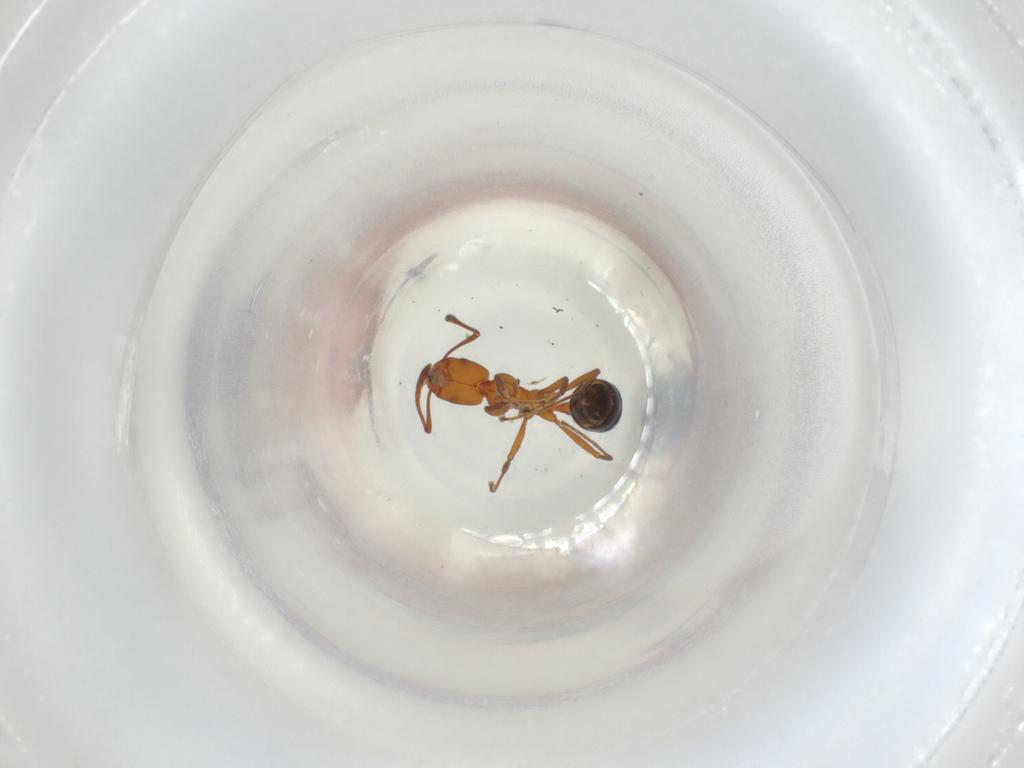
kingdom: Animalia
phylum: Arthropoda
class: Insecta
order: Hymenoptera
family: Formicidae
